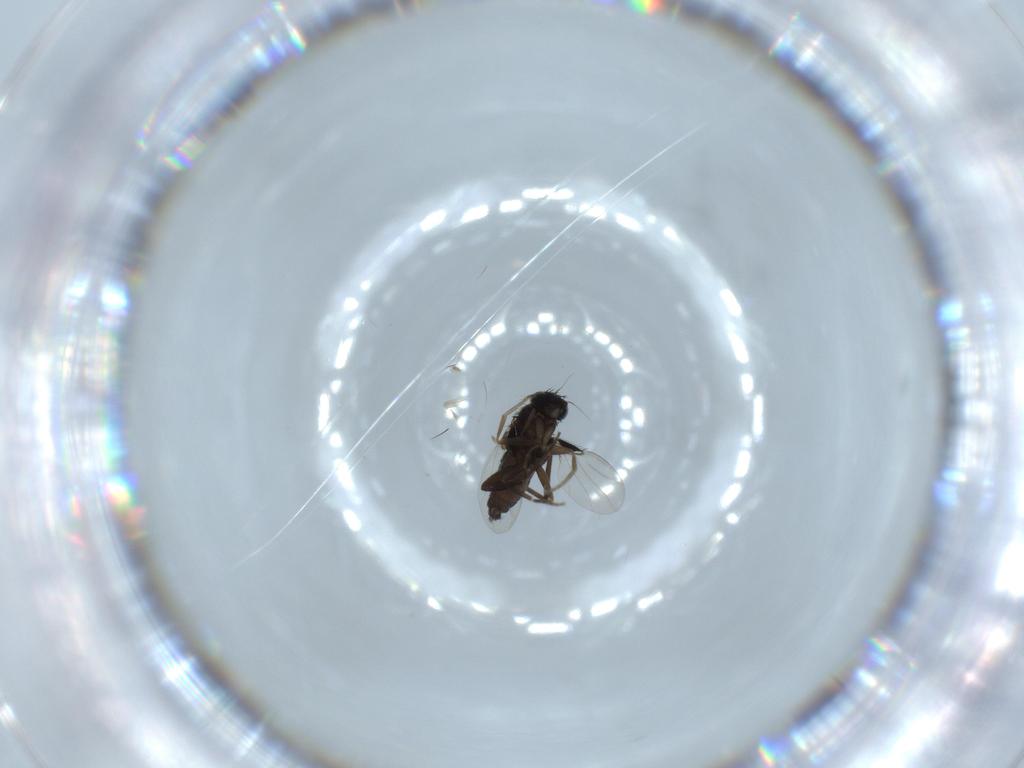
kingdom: Animalia
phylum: Arthropoda
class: Insecta
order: Diptera
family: Phoridae
